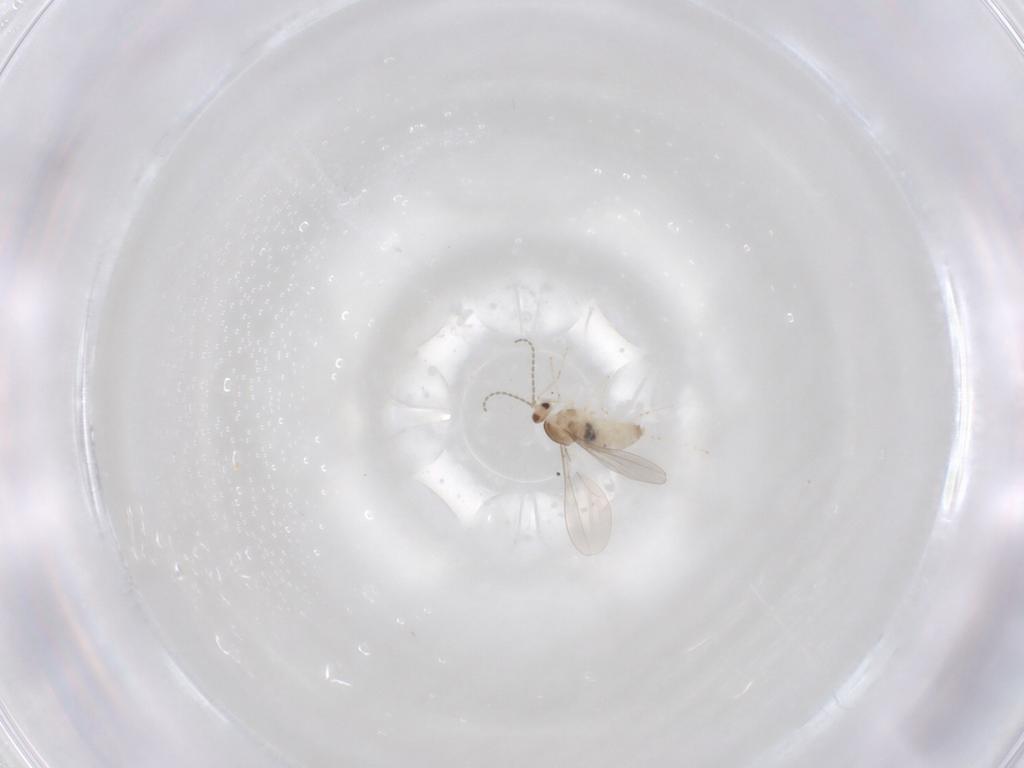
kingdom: Animalia
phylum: Arthropoda
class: Insecta
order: Diptera
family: Cecidomyiidae
